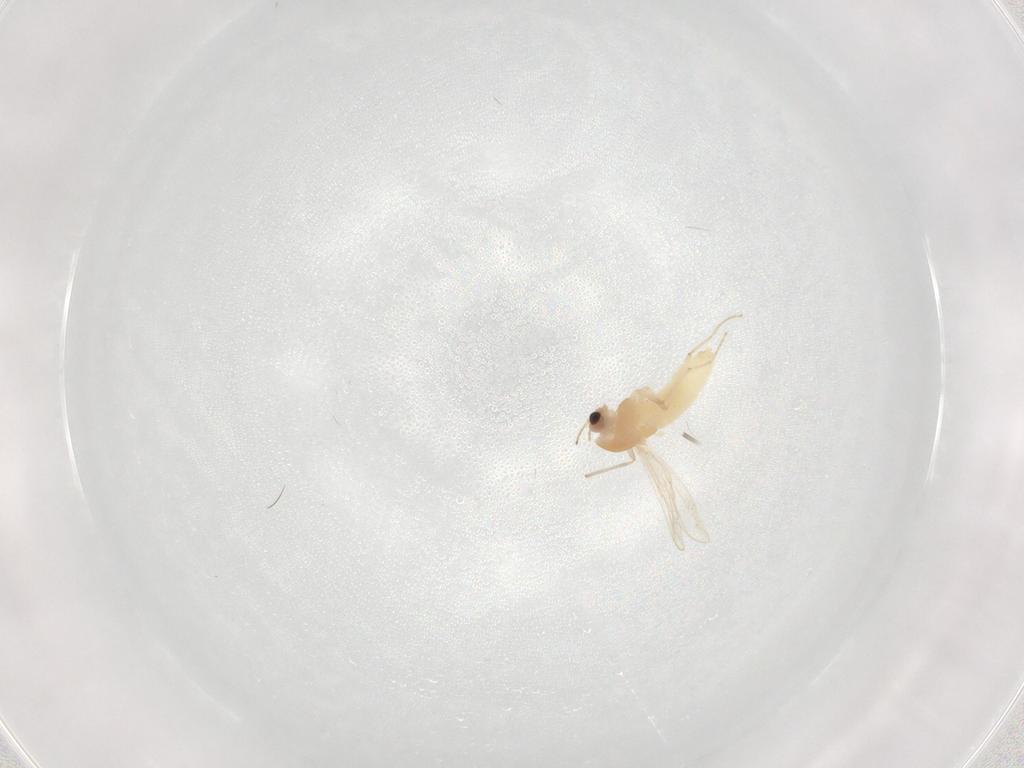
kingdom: Animalia
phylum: Arthropoda
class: Insecta
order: Diptera
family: Chironomidae
